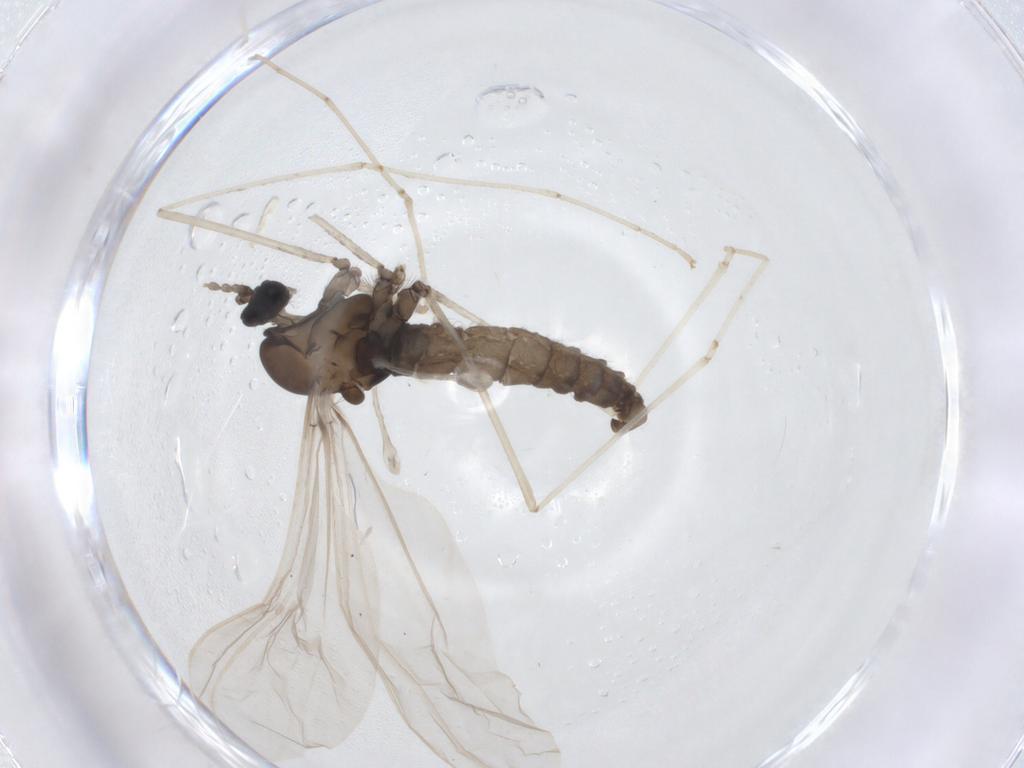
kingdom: Animalia
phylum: Arthropoda
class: Insecta
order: Diptera
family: Cecidomyiidae
